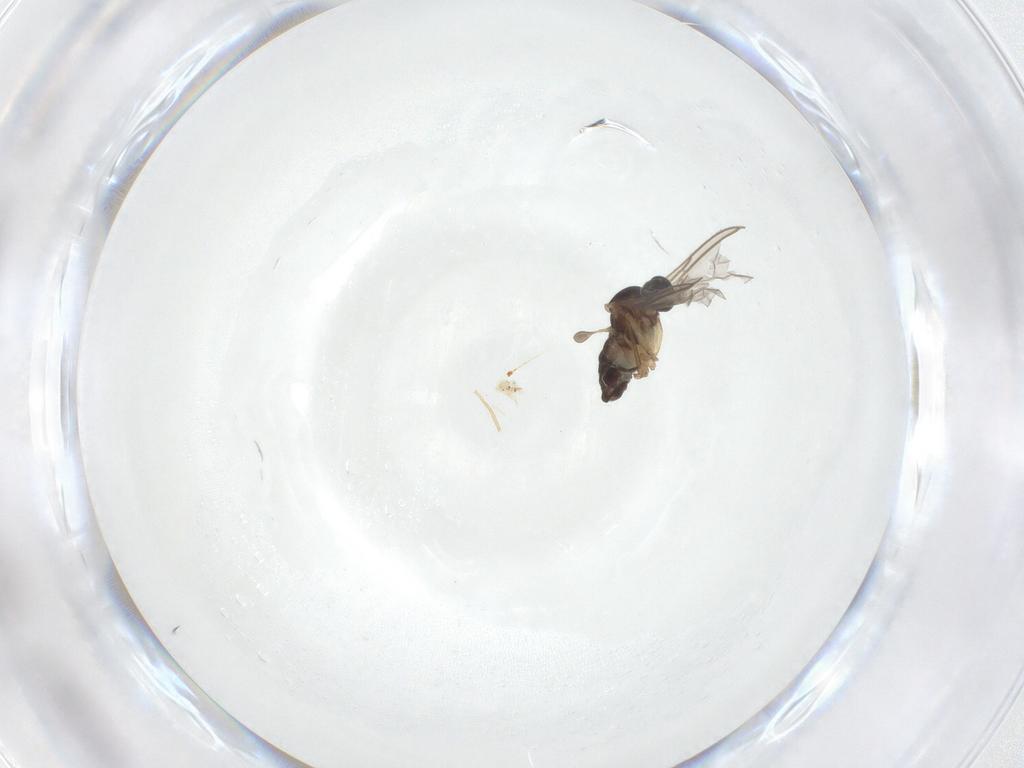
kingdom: Animalia
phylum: Arthropoda
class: Insecta
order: Diptera
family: Sciaridae
